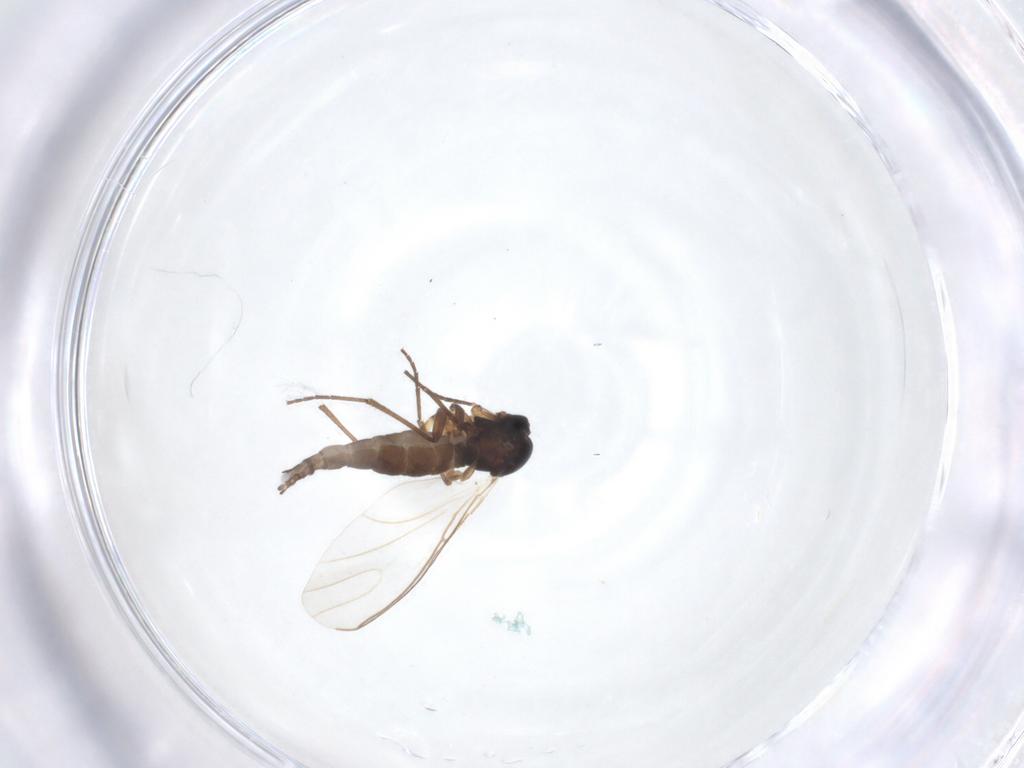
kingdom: Animalia
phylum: Arthropoda
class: Insecta
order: Diptera
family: Sciaridae
